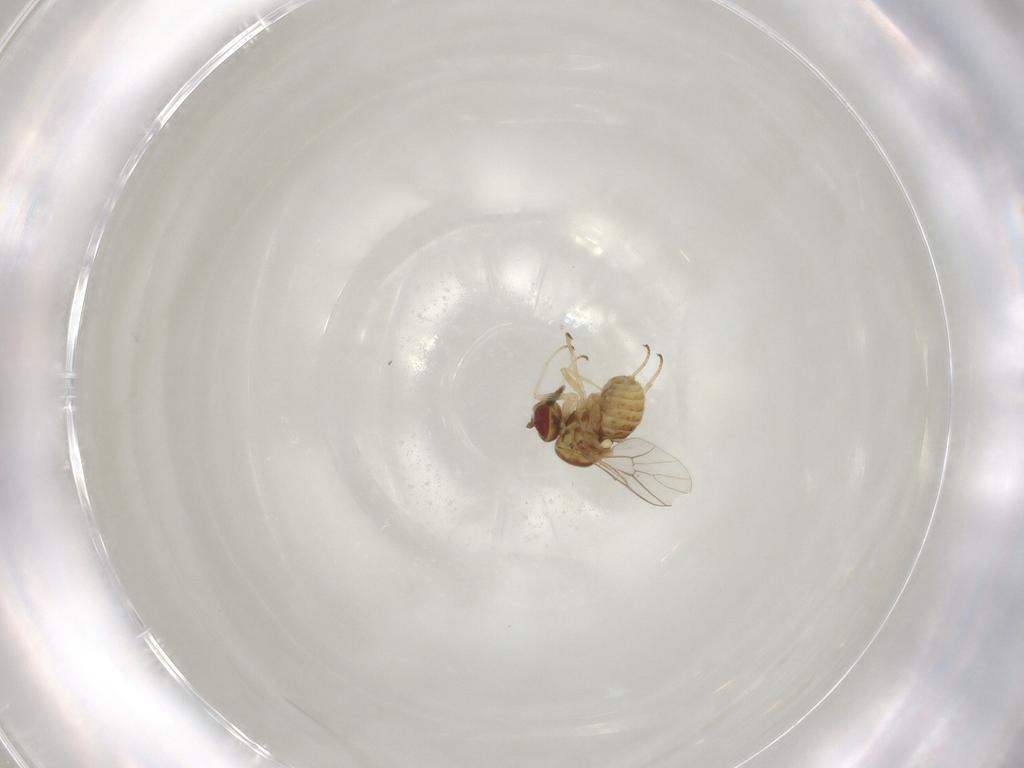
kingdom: Animalia
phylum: Arthropoda
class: Insecta
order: Diptera
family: Mythicomyiidae
